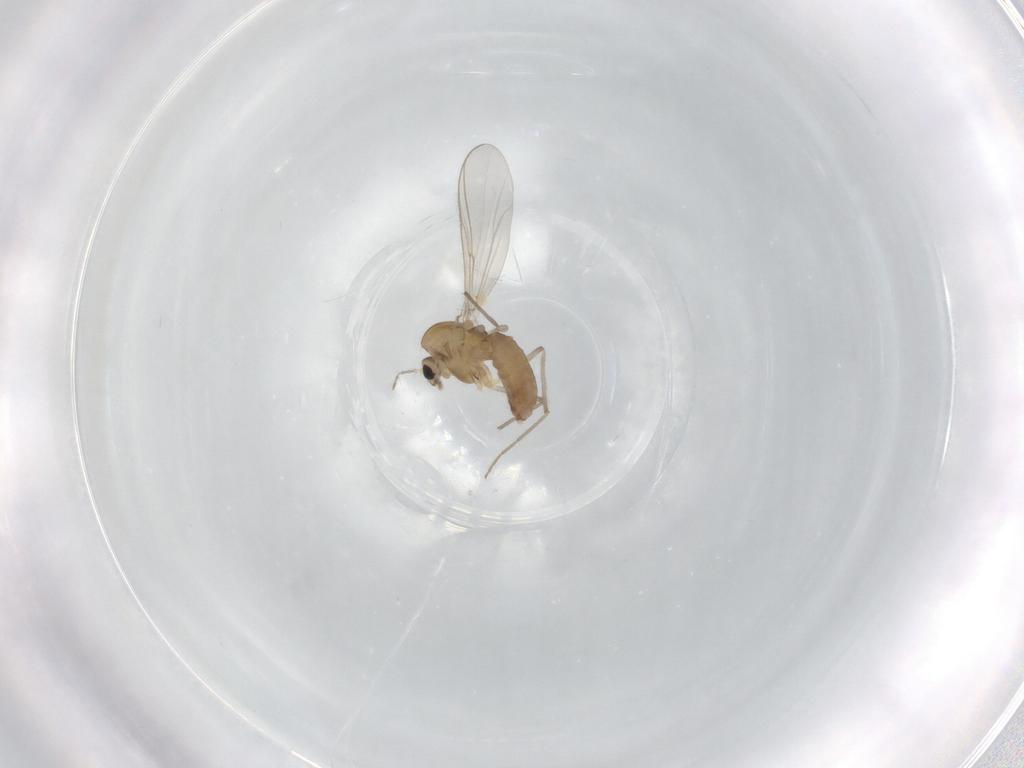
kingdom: Animalia
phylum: Arthropoda
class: Insecta
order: Diptera
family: Chironomidae
